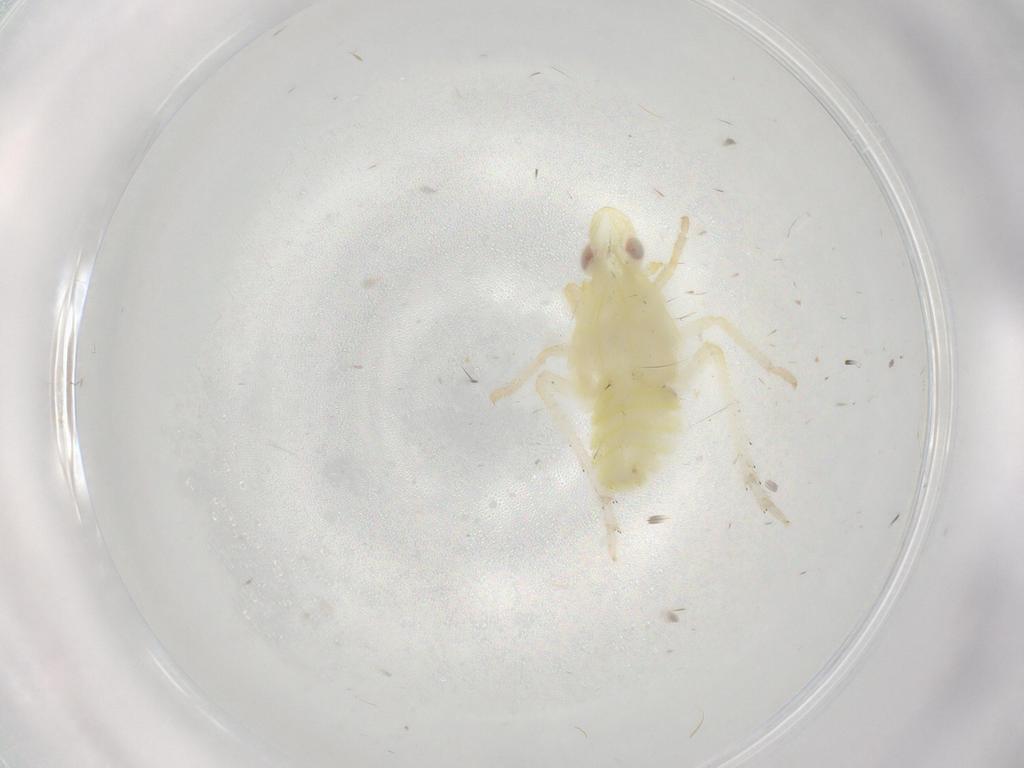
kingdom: Animalia
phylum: Arthropoda
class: Insecta
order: Hemiptera
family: Fulgoroidea_incertae_sedis
